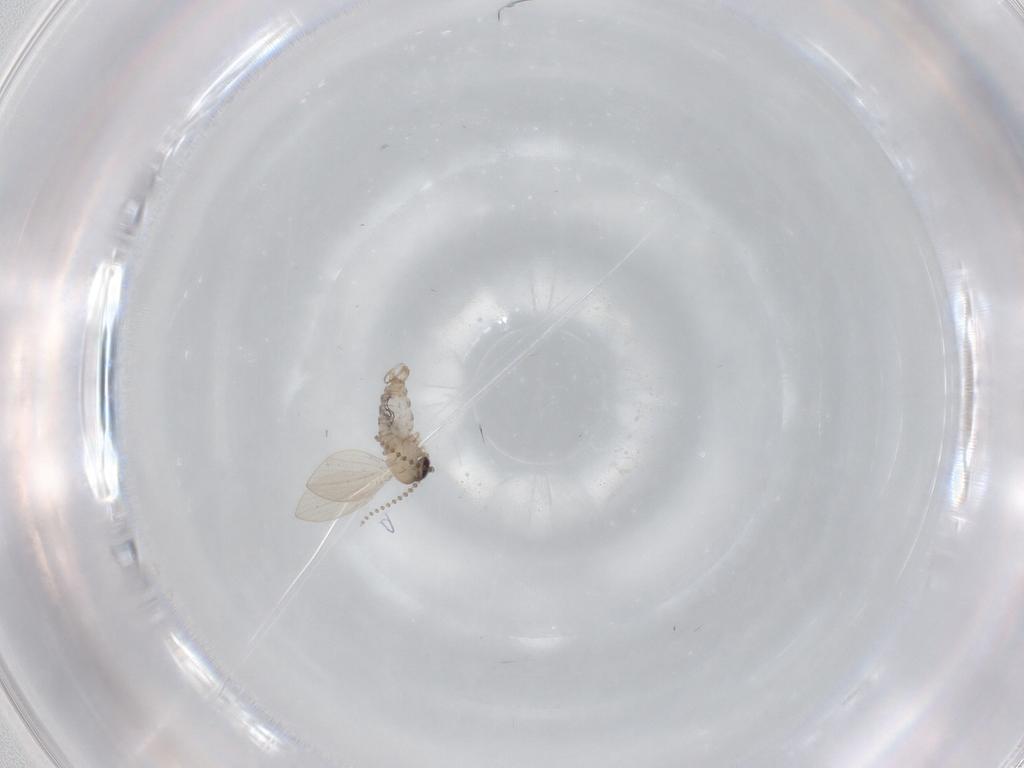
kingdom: Animalia
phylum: Arthropoda
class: Insecta
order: Diptera
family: Psychodidae
